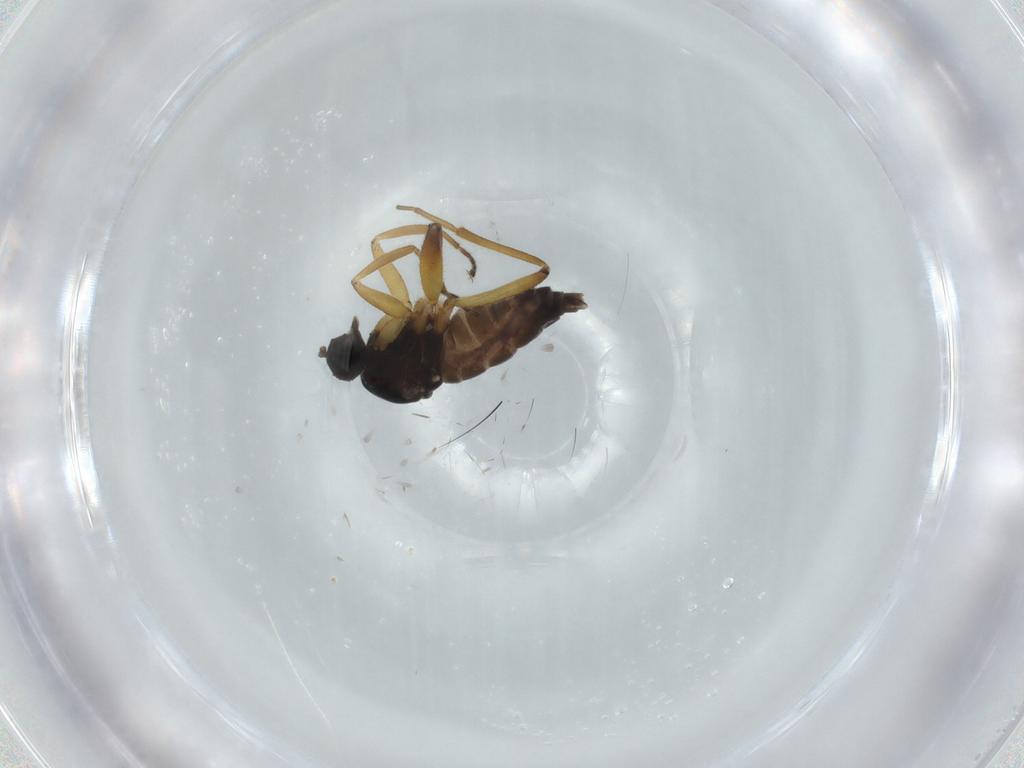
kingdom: Animalia
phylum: Arthropoda
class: Insecta
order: Diptera
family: Hybotidae
